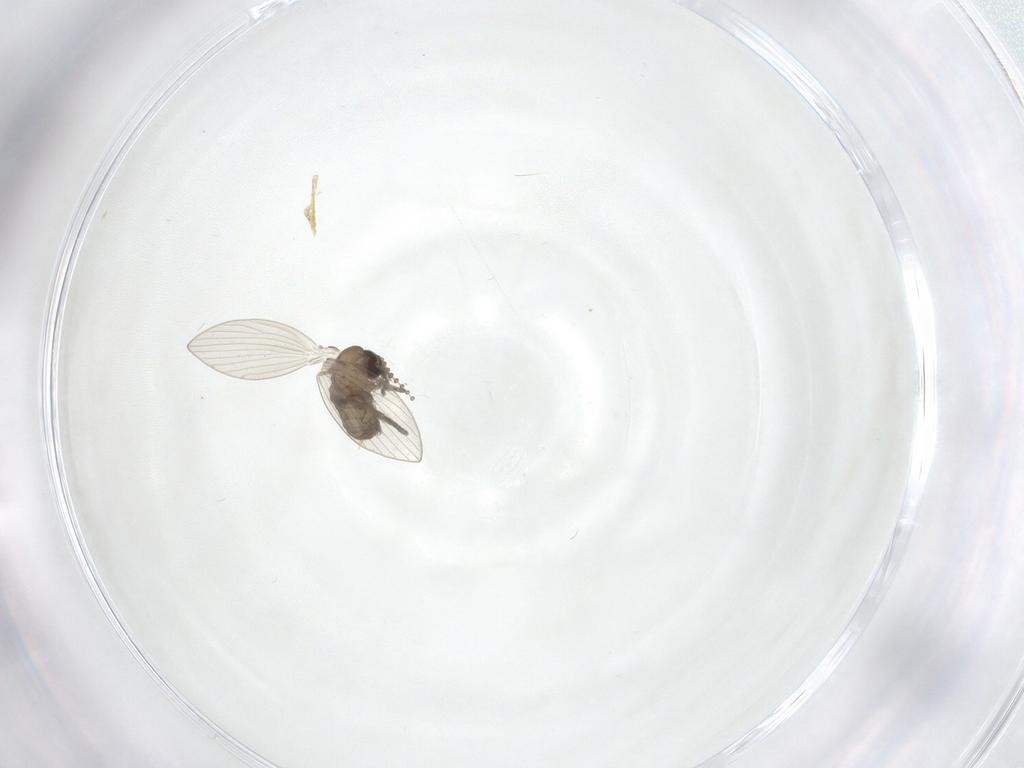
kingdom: Animalia
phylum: Arthropoda
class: Insecta
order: Diptera
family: Psychodidae
